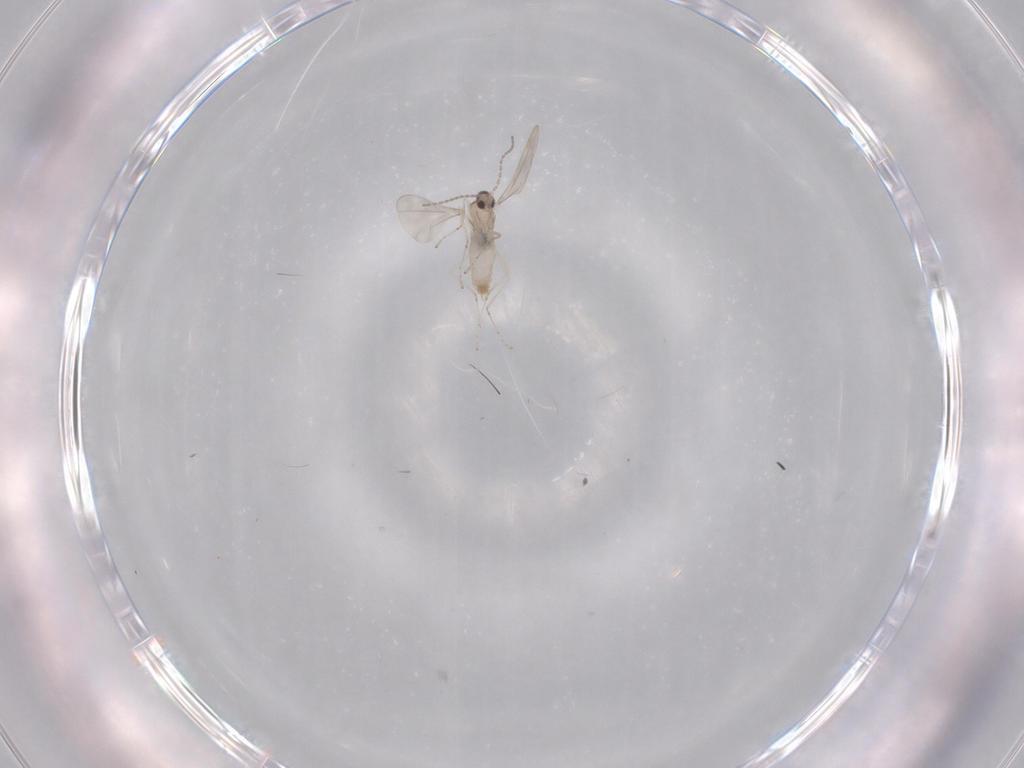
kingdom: Animalia
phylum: Arthropoda
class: Insecta
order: Diptera
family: Cecidomyiidae
